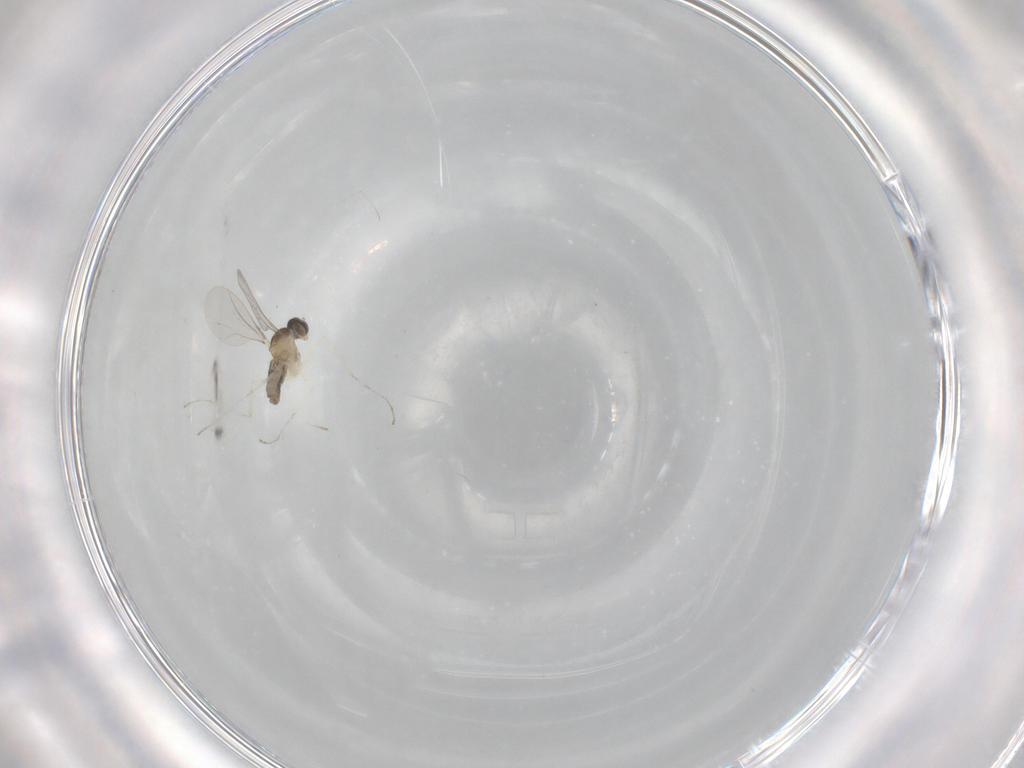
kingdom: Animalia
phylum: Arthropoda
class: Insecta
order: Diptera
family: Cecidomyiidae
